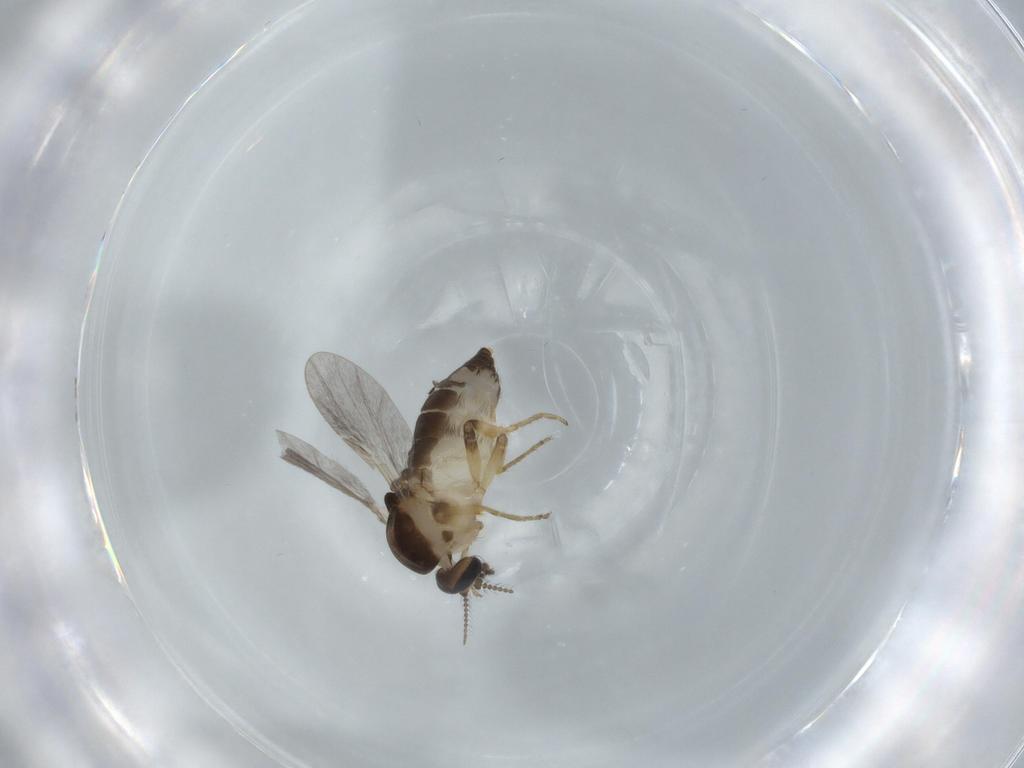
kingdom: Animalia
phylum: Arthropoda
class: Insecta
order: Diptera
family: Ceratopogonidae
